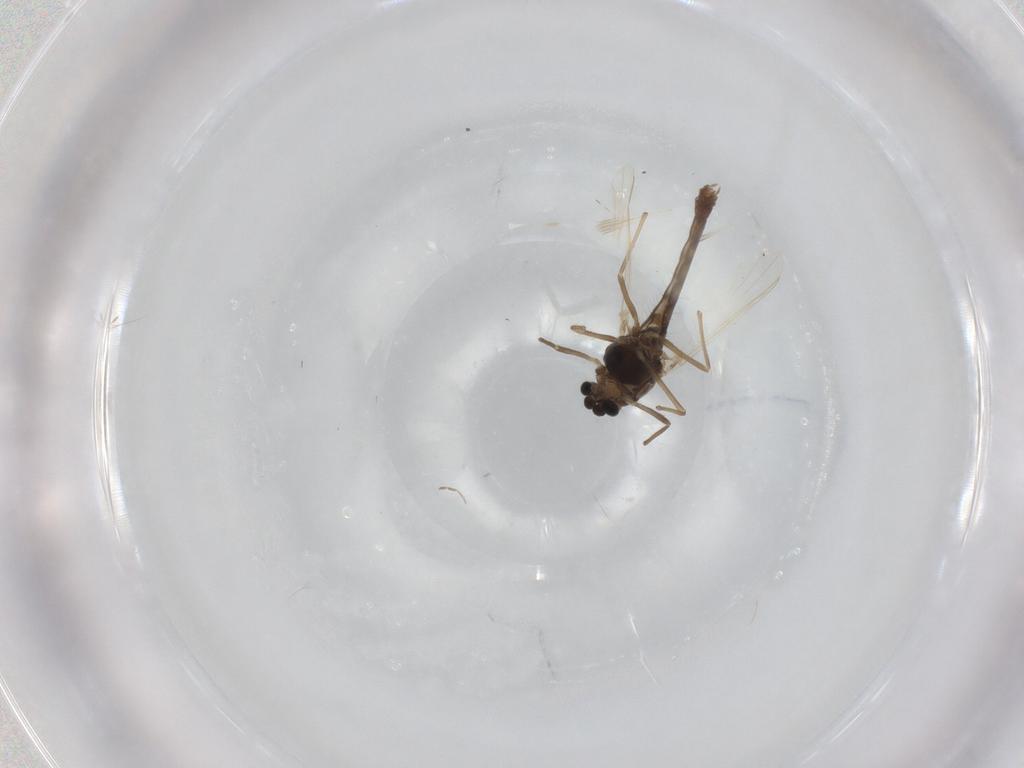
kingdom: Animalia
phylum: Arthropoda
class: Insecta
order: Diptera
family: Chironomidae
